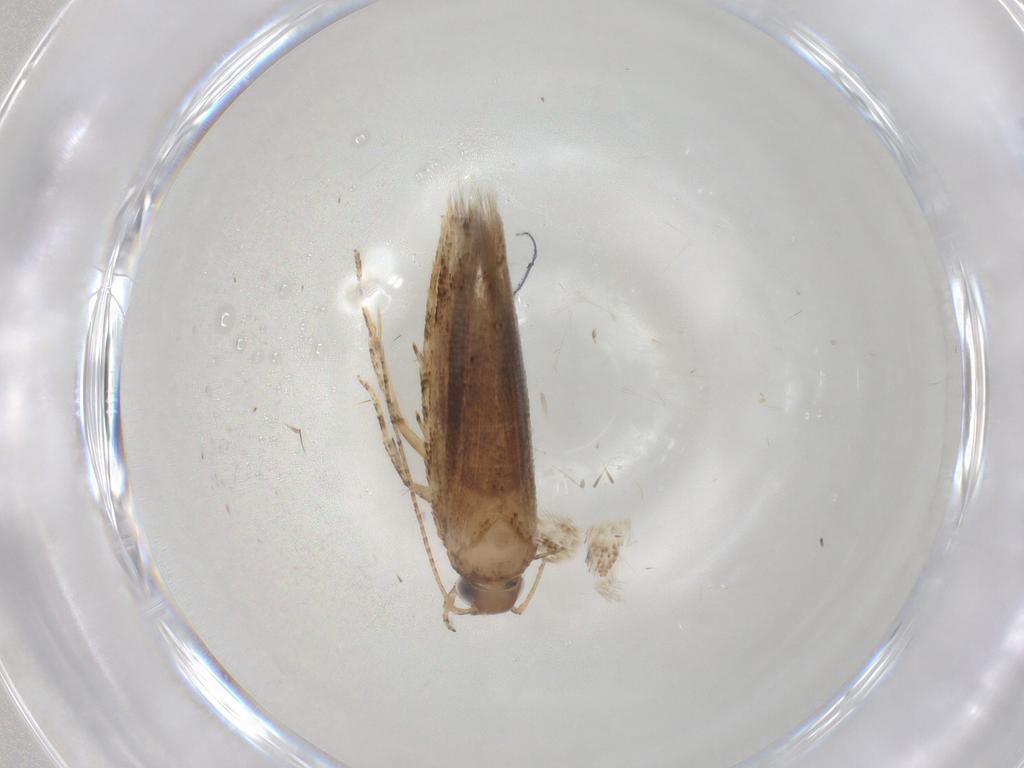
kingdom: Animalia
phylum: Arthropoda
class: Insecta
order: Lepidoptera
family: Gelechiidae
